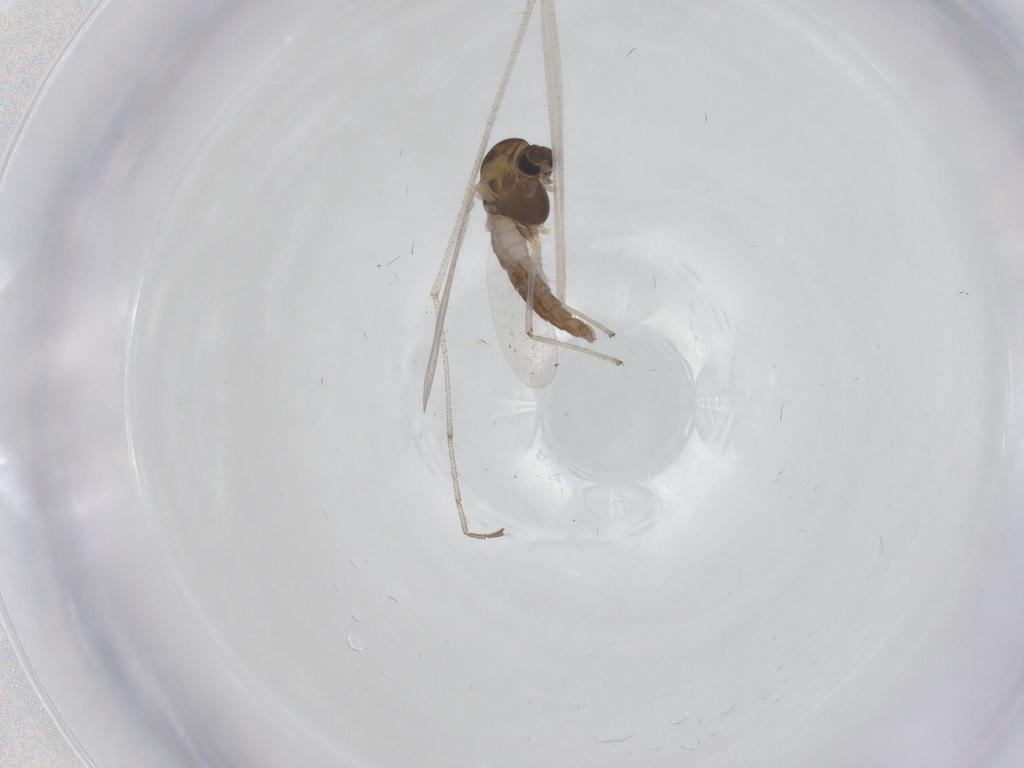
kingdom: Animalia
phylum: Arthropoda
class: Insecta
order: Diptera
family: Chironomidae
